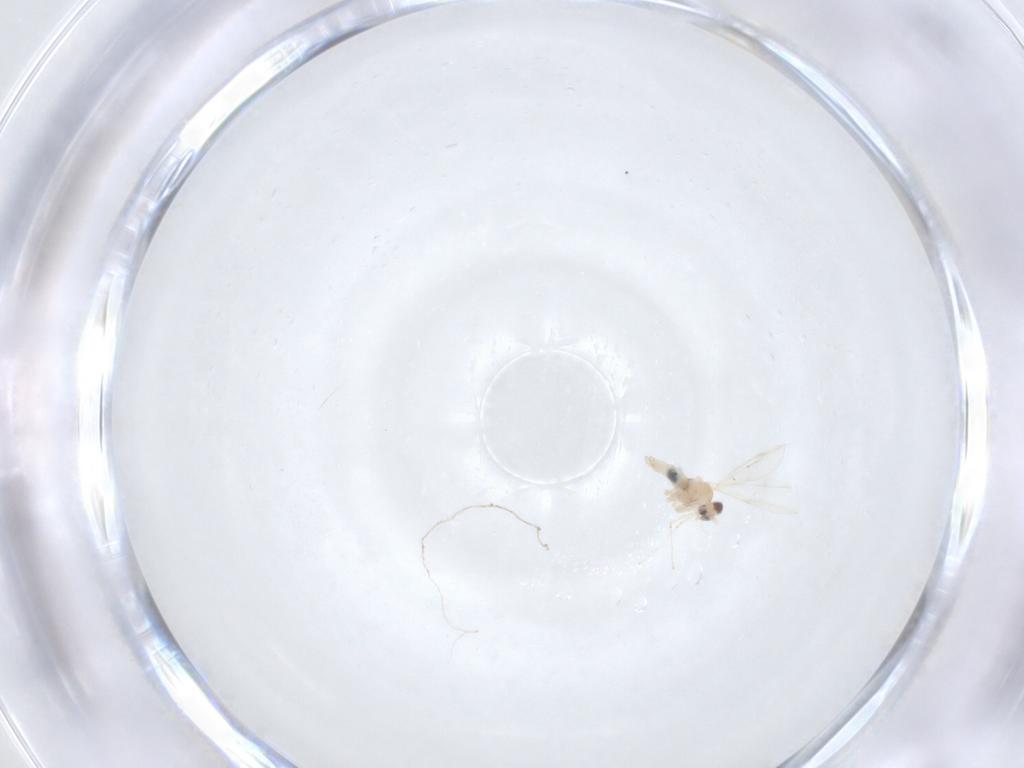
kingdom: Animalia
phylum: Arthropoda
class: Insecta
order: Diptera
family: Cecidomyiidae
